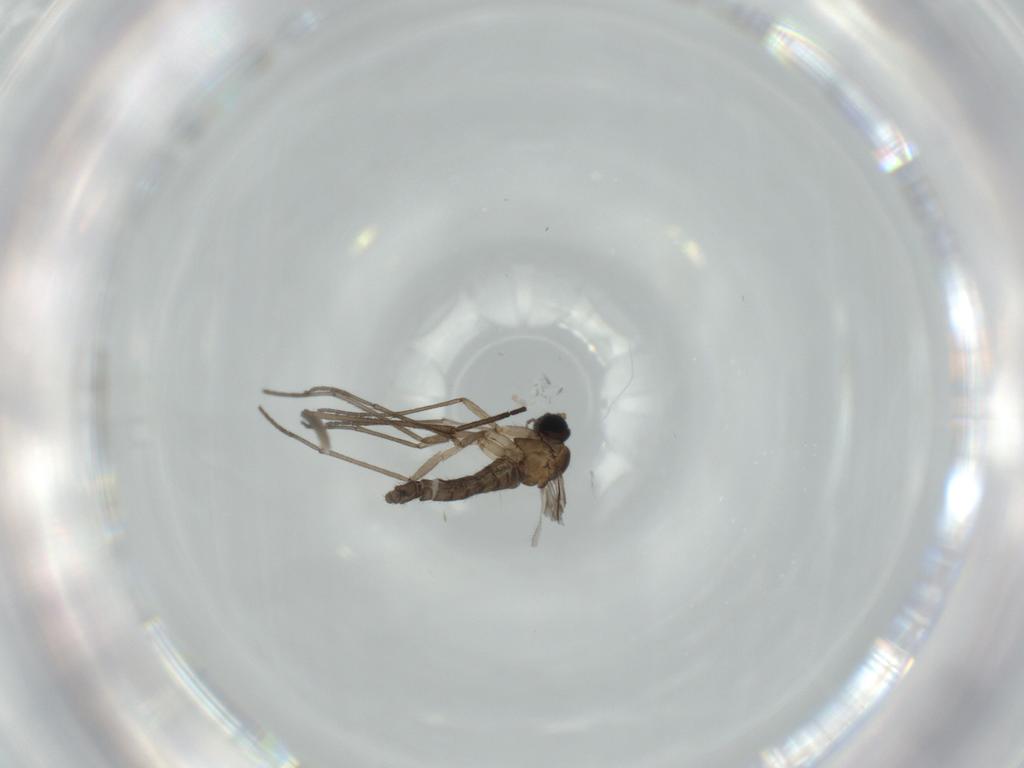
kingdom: Animalia
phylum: Arthropoda
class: Insecta
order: Diptera
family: Sciaridae
